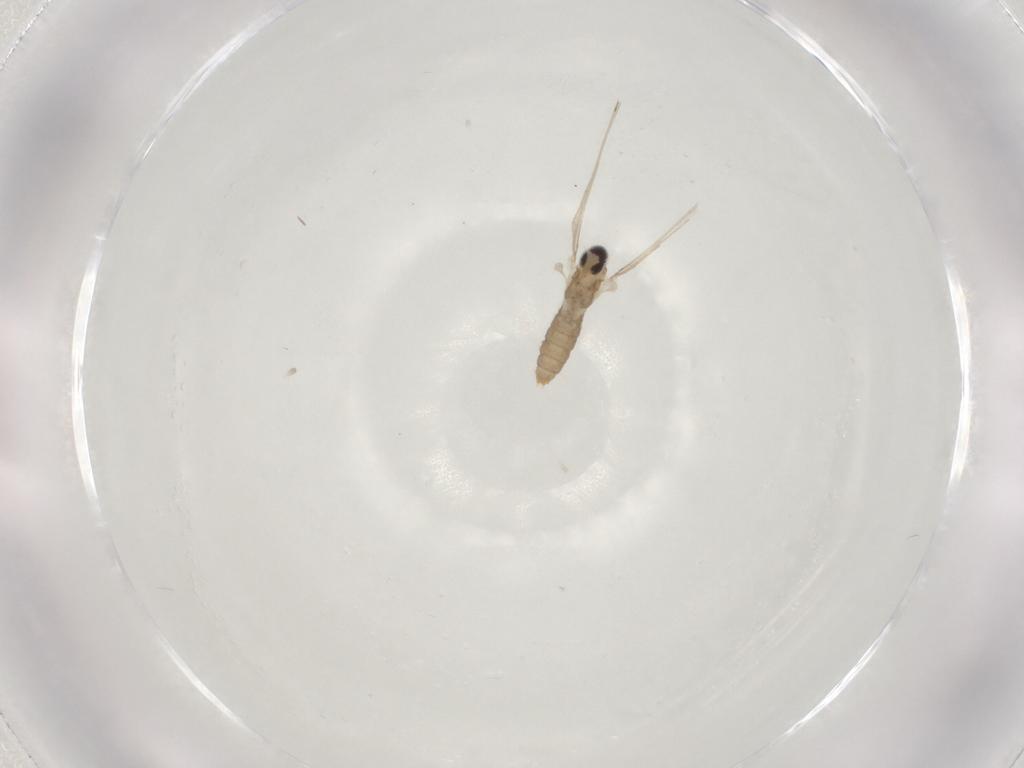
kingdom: Animalia
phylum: Arthropoda
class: Insecta
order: Diptera
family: Cecidomyiidae
